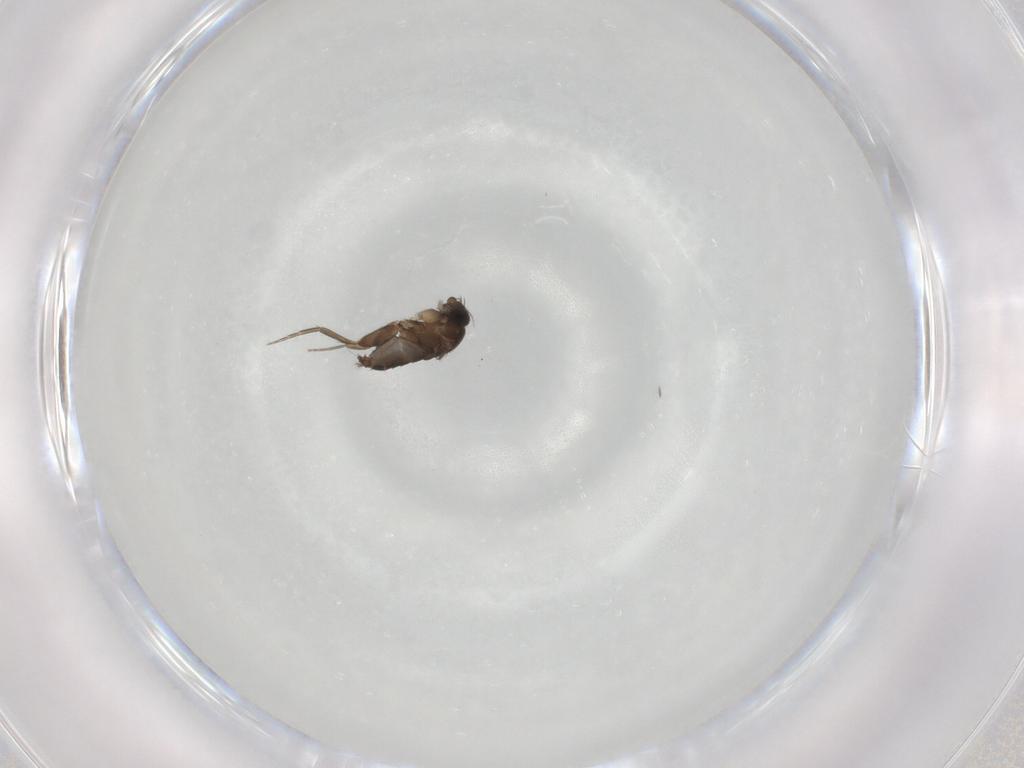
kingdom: Animalia
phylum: Arthropoda
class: Insecta
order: Diptera
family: Phoridae
